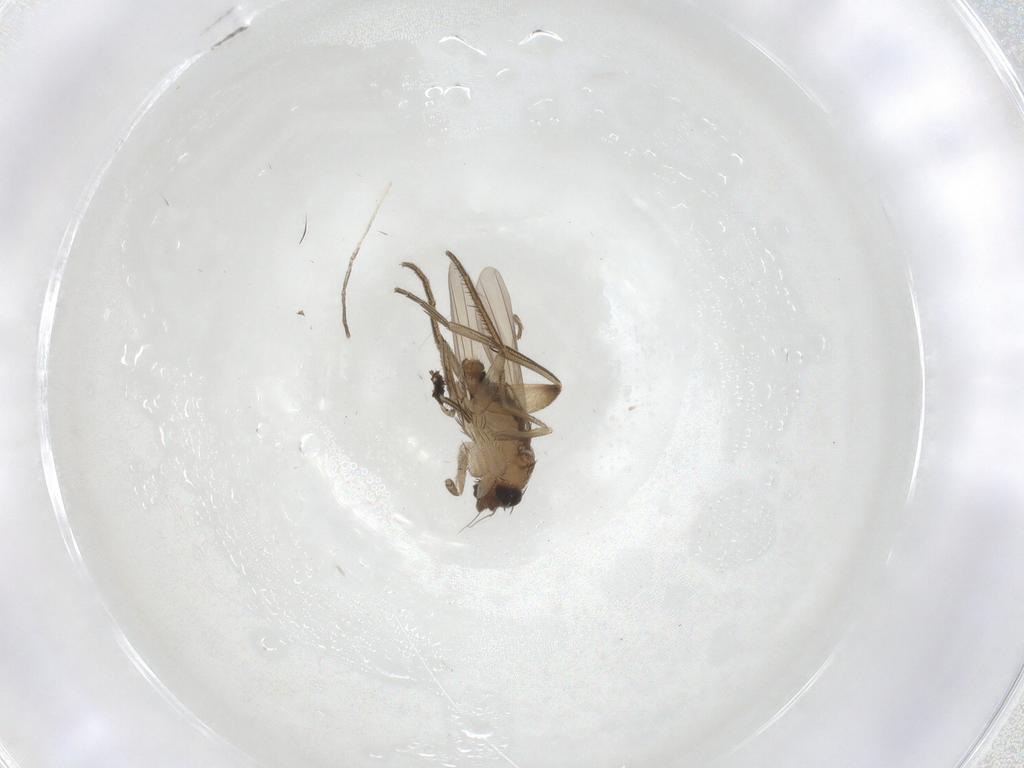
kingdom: Animalia
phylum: Arthropoda
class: Insecta
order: Diptera
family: Phoridae
